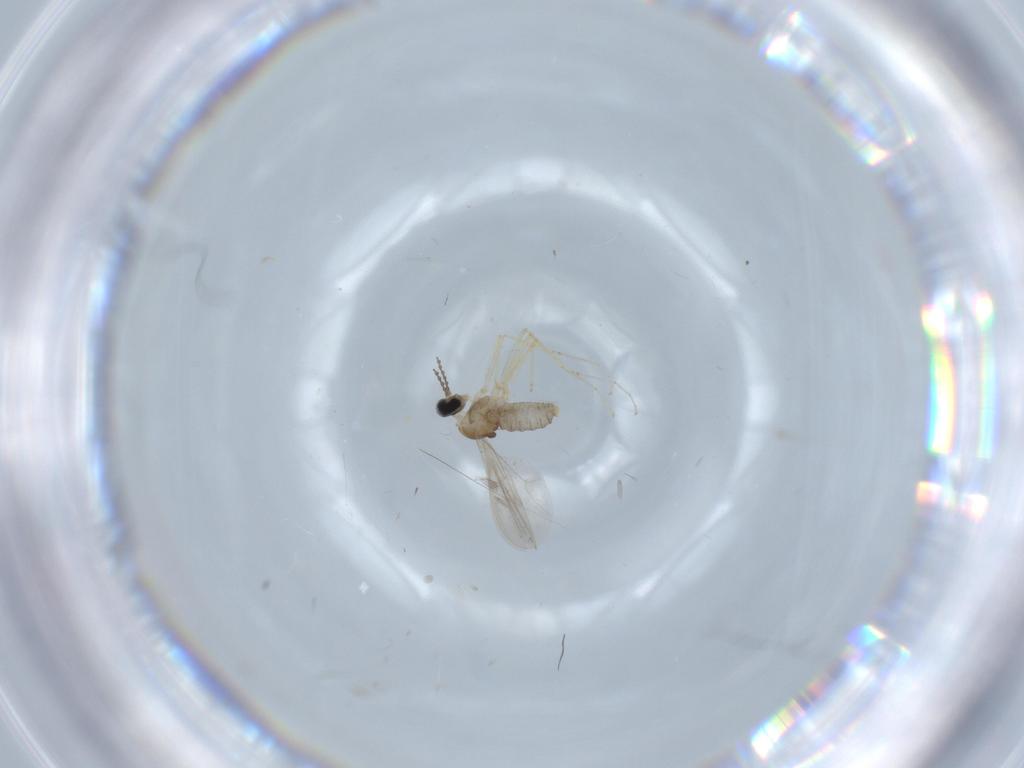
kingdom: Animalia
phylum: Arthropoda
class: Insecta
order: Diptera
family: Cecidomyiidae
